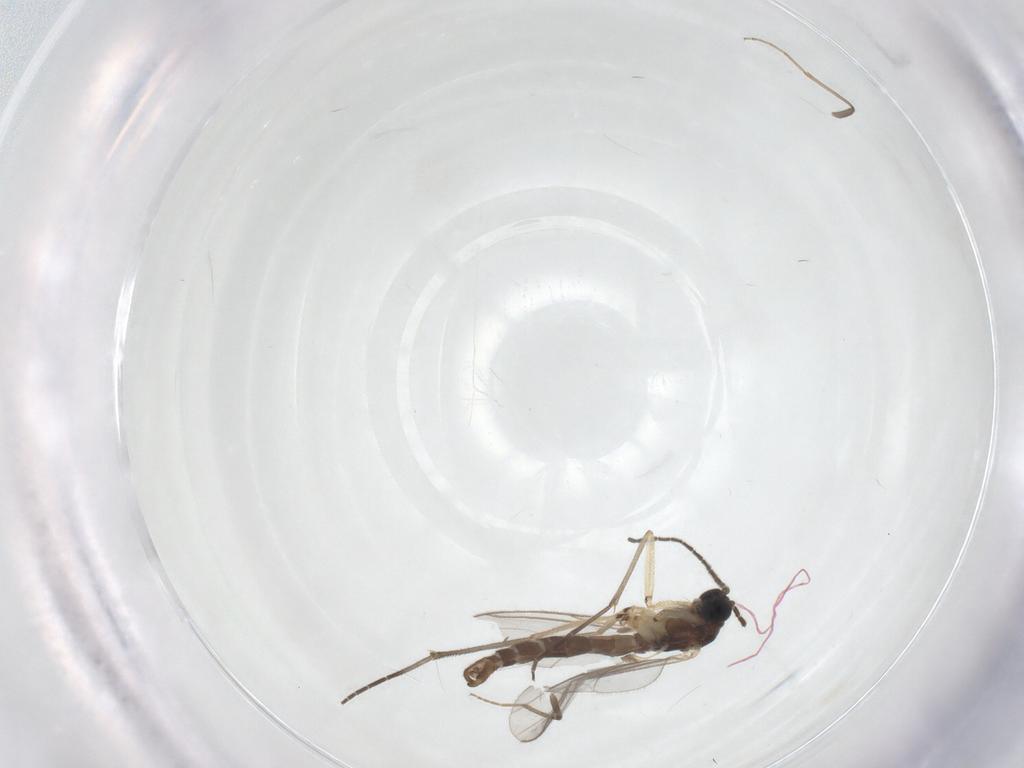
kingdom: Animalia
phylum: Arthropoda
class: Insecta
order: Diptera
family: Sciaridae
